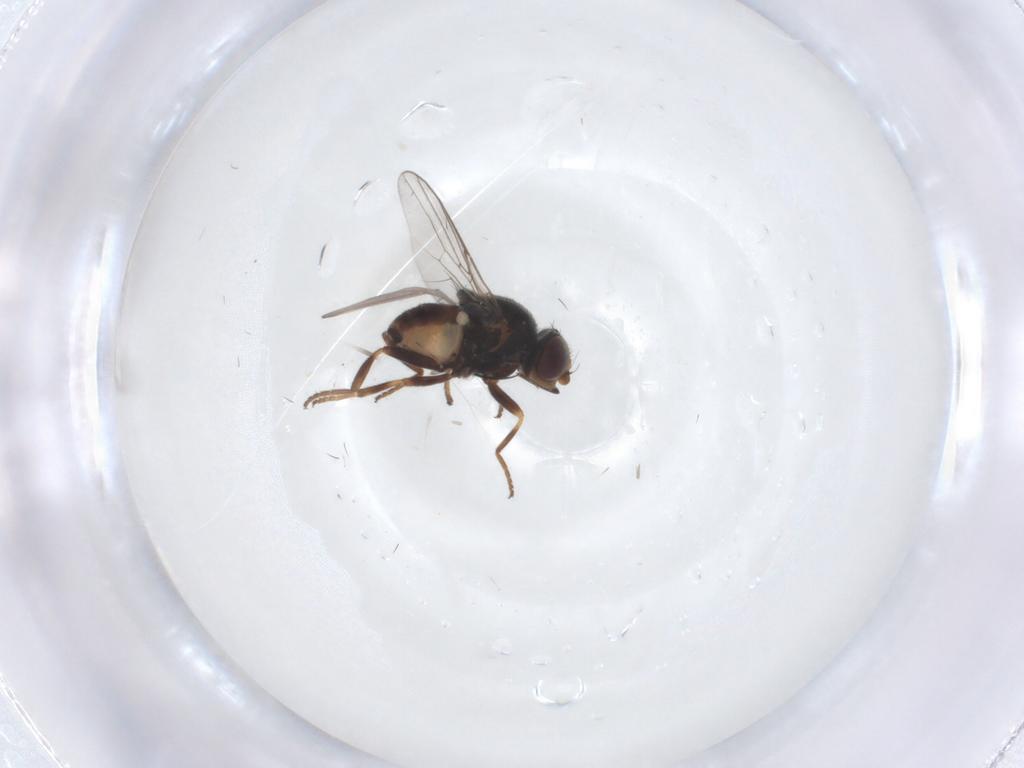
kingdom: Animalia
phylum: Arthropoda
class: Insecta
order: Diptera
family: Chloropidae
